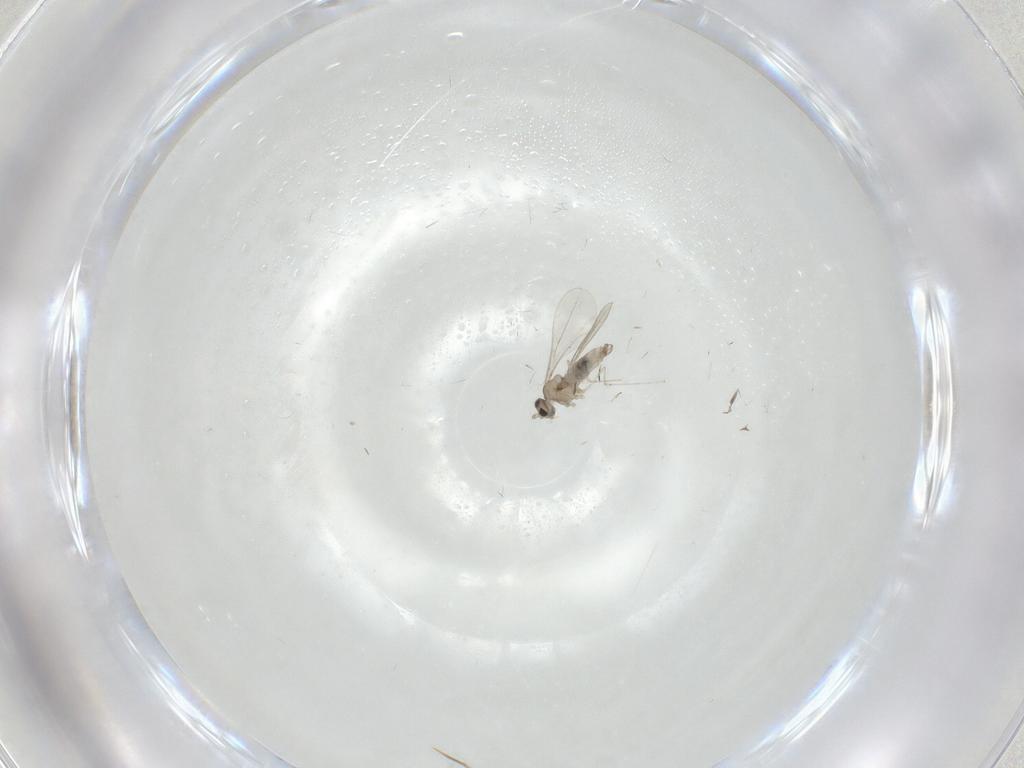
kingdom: Animalia
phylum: Arthropoda
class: Insecta
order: Diptera
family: Cecidomyiidae
